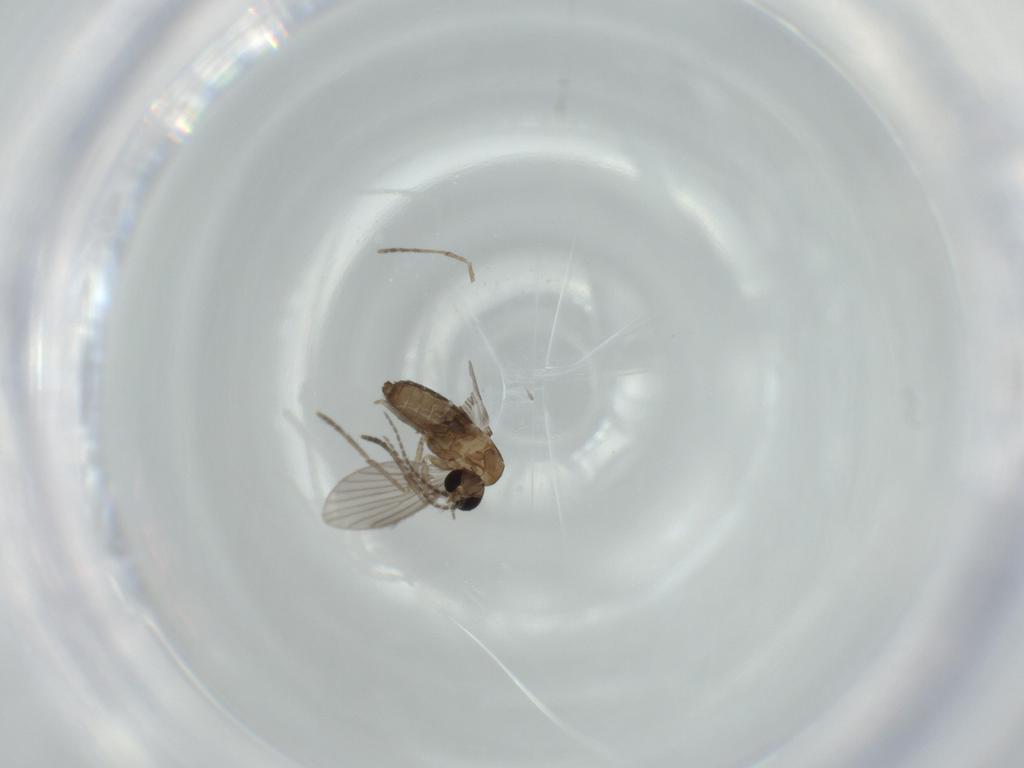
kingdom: Animalia
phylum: Arthropoda
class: Insecta
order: Diptera
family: Psychodidae
